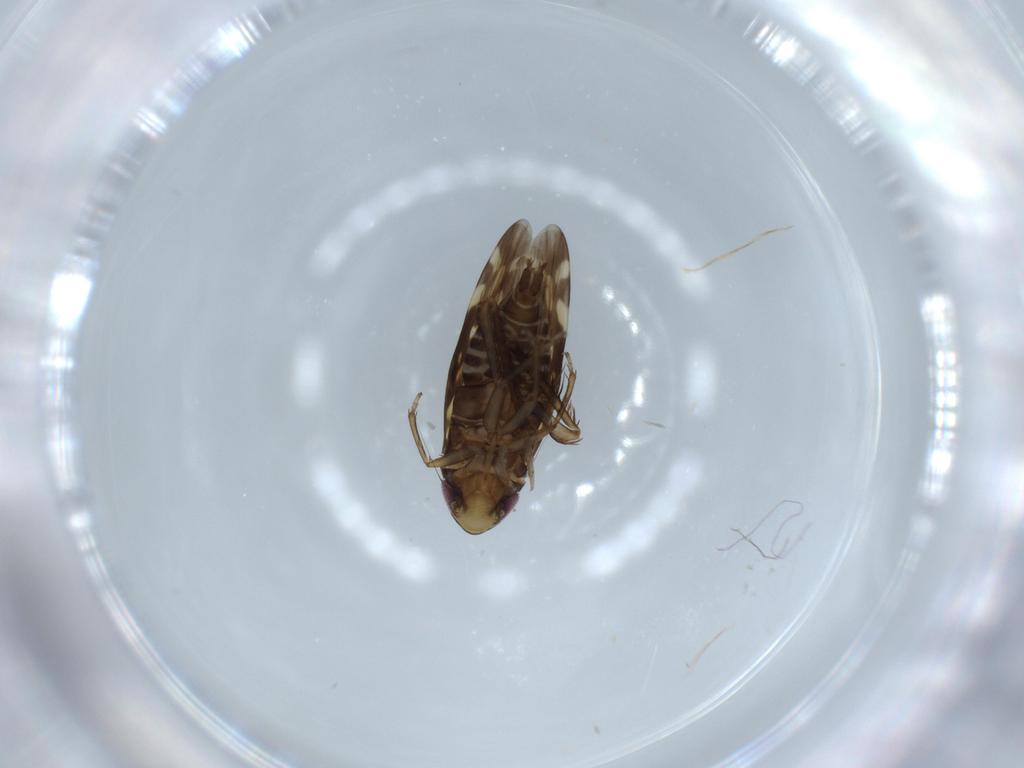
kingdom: Animalia
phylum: Arthropoda
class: Insecta
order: Hemiptera
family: Cicadellidae
